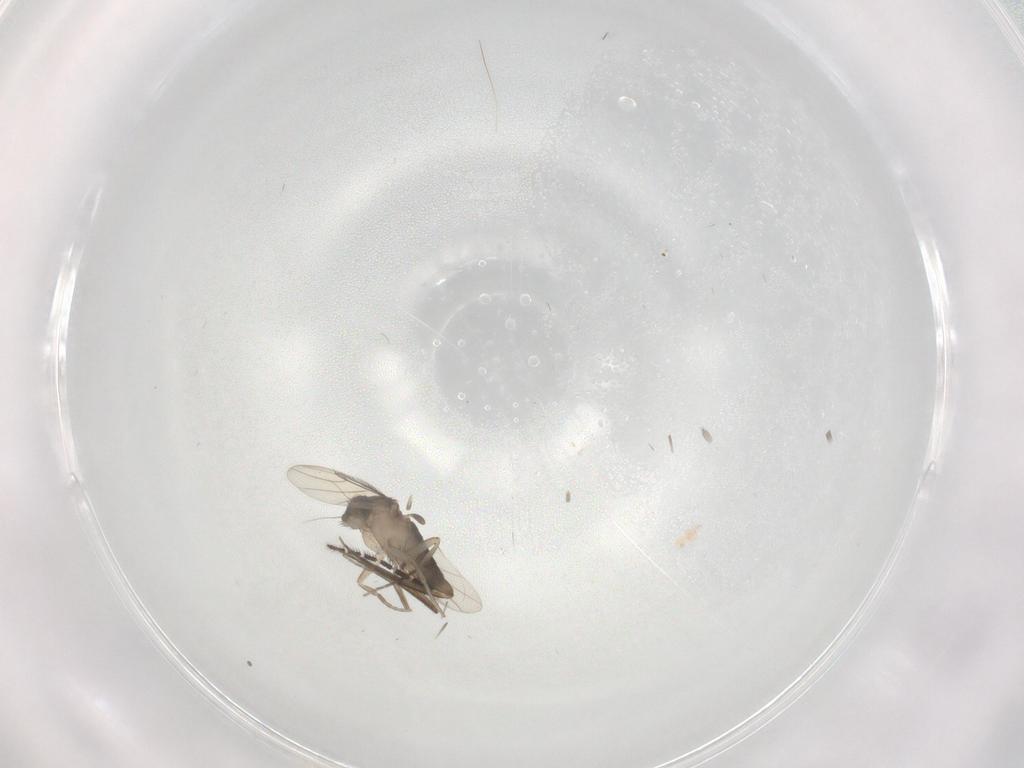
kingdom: Animalia
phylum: Arthropoda
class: Insecta
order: Diptera
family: Phoridae
